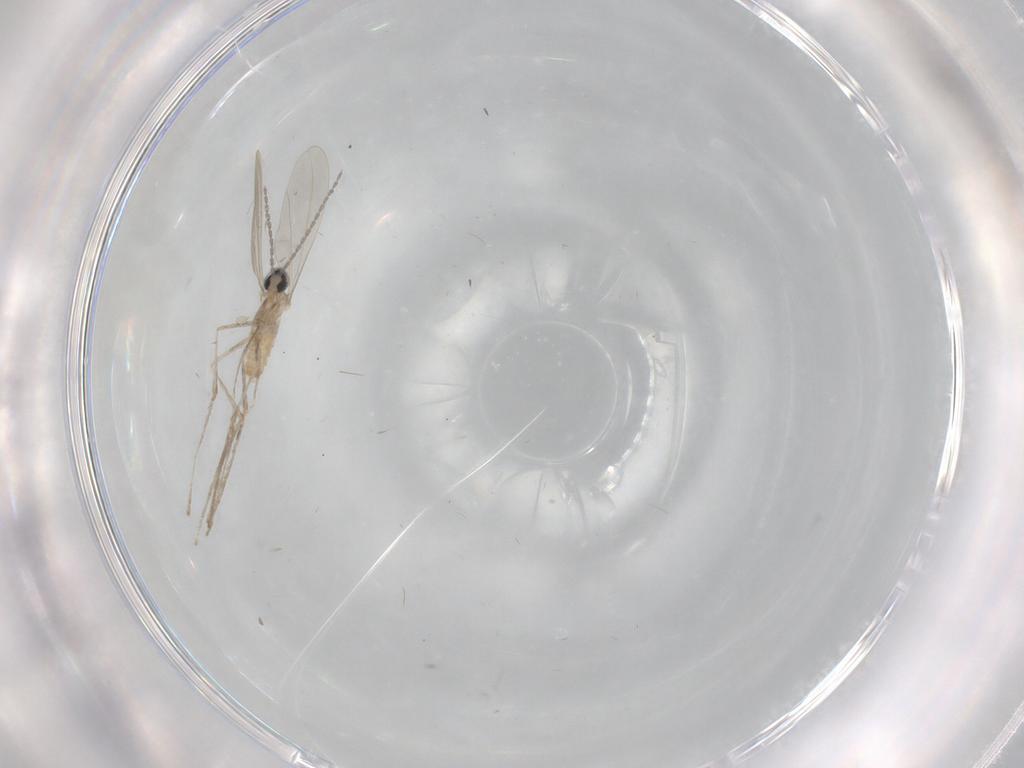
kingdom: Animalia
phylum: Arthropoda
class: Insecta
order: Diptera
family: Cecidomyiidae
